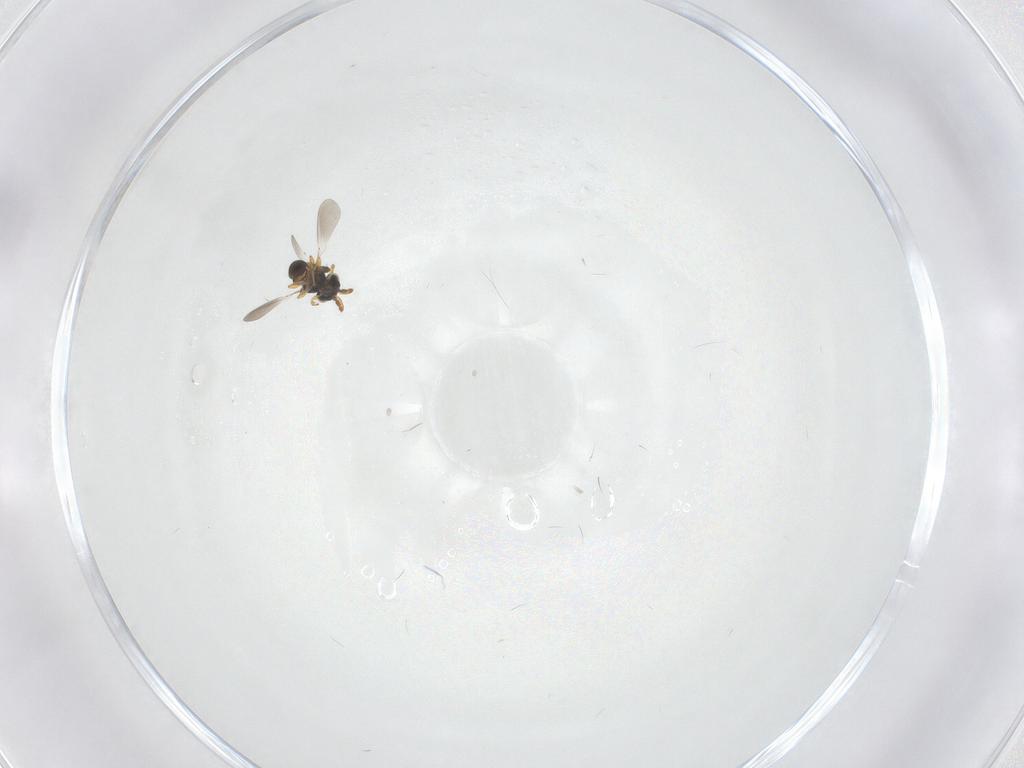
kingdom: Animalia
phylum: Arthropoda
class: Insecta
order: Hymenoptera
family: Platygastridae
